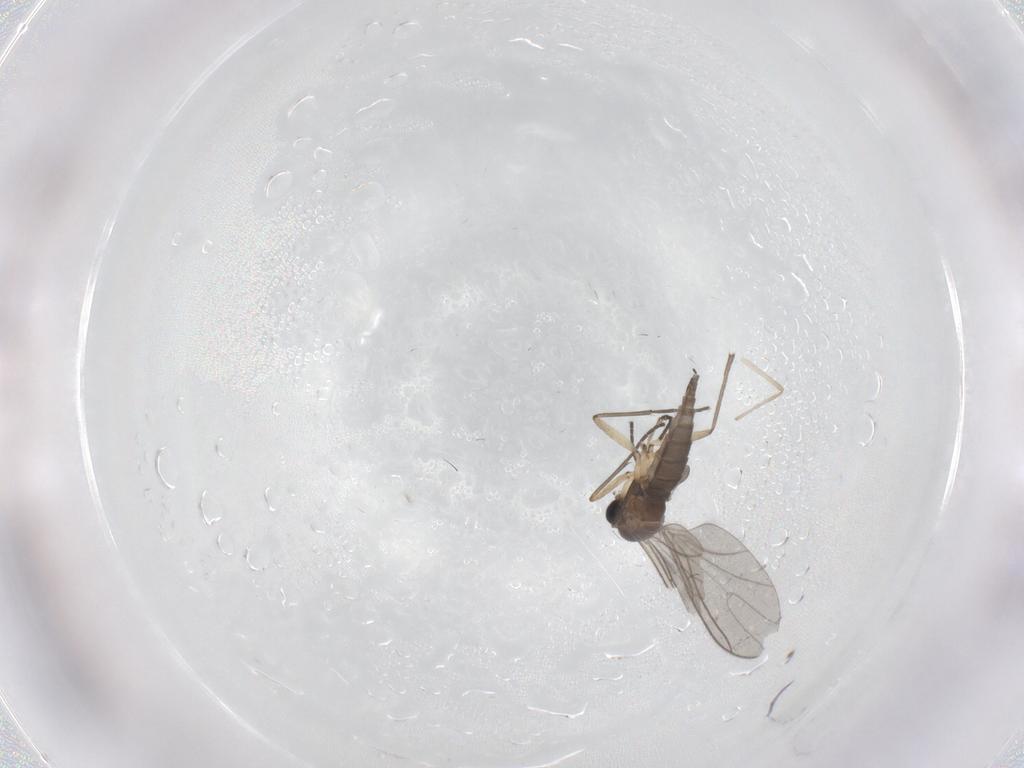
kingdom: Animalia
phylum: Arthropoda
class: Insecta
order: Diptera
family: Sciaridae
